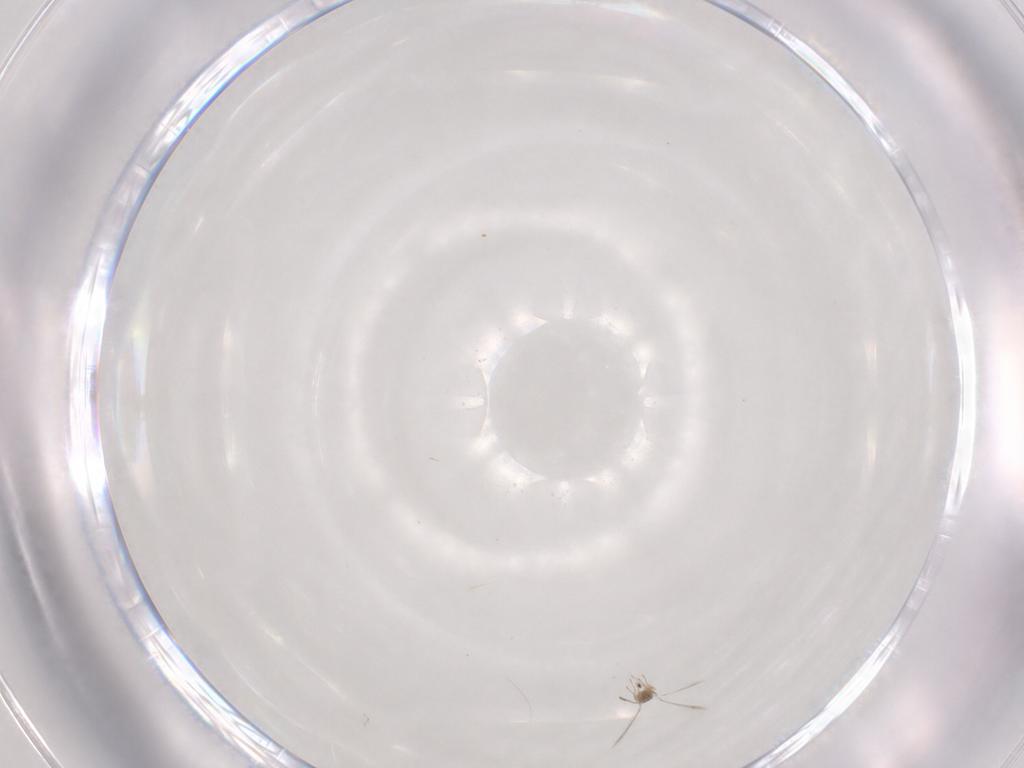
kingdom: Animalia
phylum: Arthropoda
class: Insecta
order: Hymenoptera
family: Mymaridae
